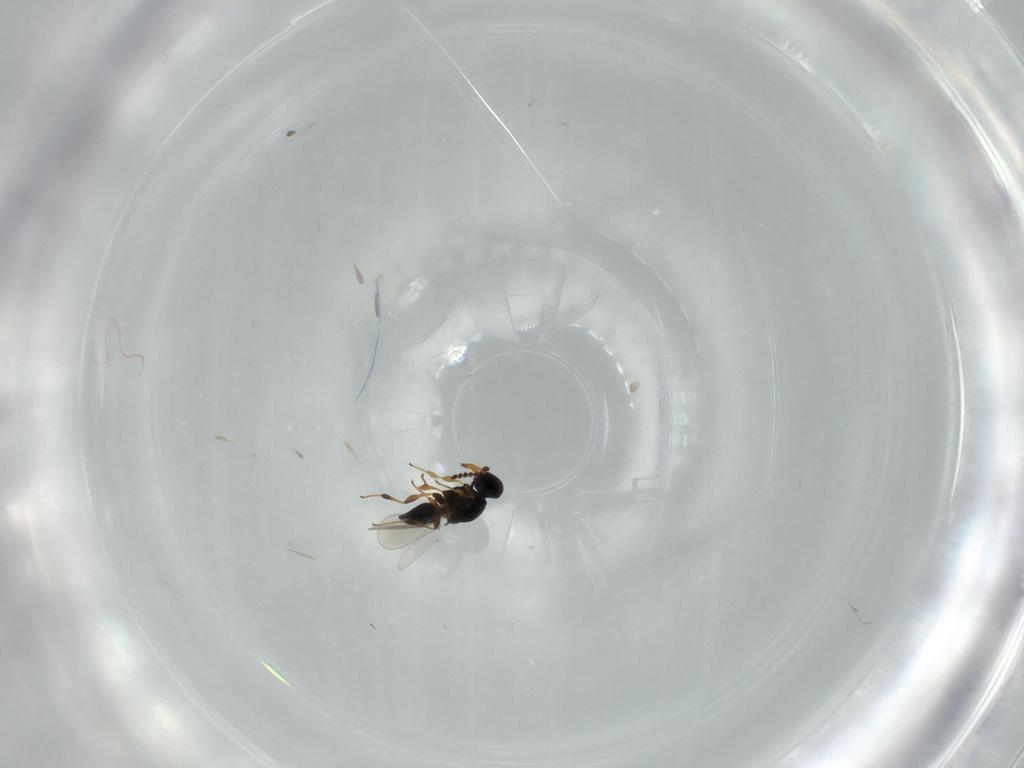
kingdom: Animalia
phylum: Arthropoda
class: Insecta
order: Hymenoptera
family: Platygastridae
